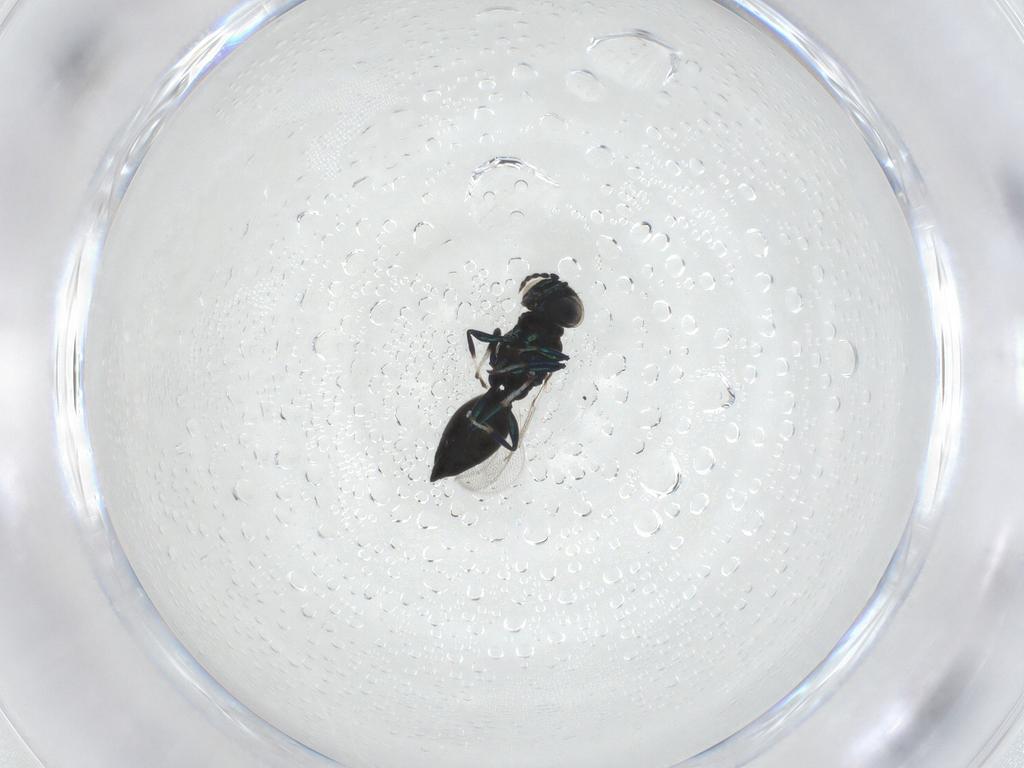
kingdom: Animalia
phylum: Arthropoda
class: Insecta
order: Hymenoptera
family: Eulophidae
